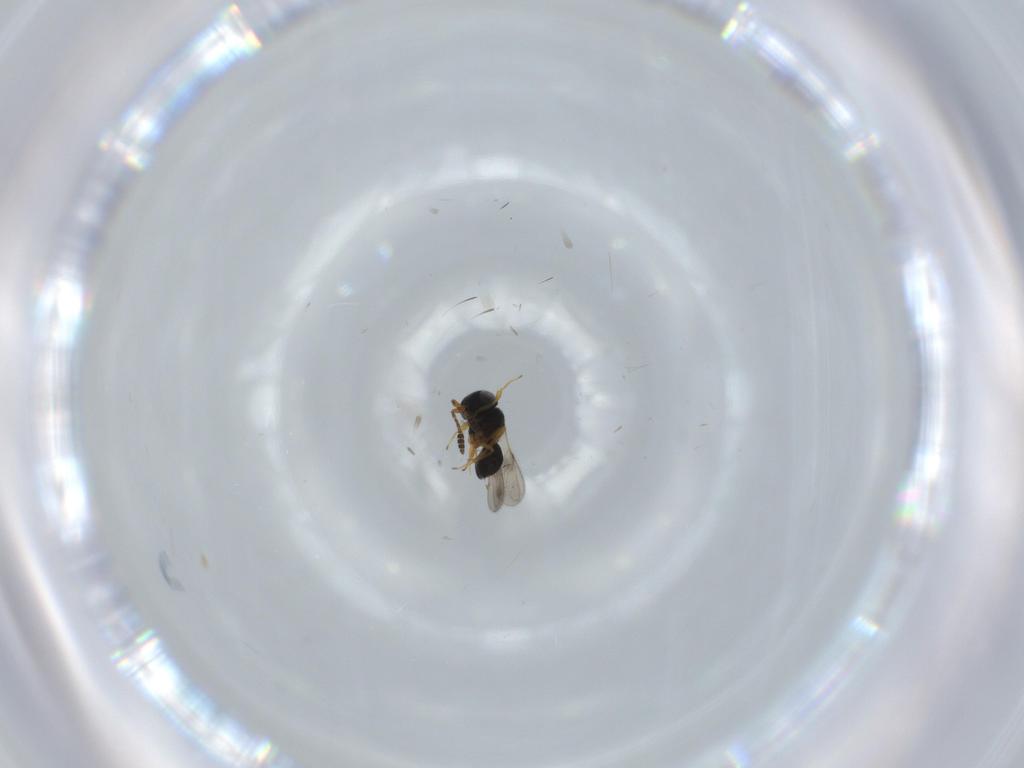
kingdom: Animalia
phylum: Arthropoda
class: Insecta
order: Hymenoptera
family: Scelionidae
